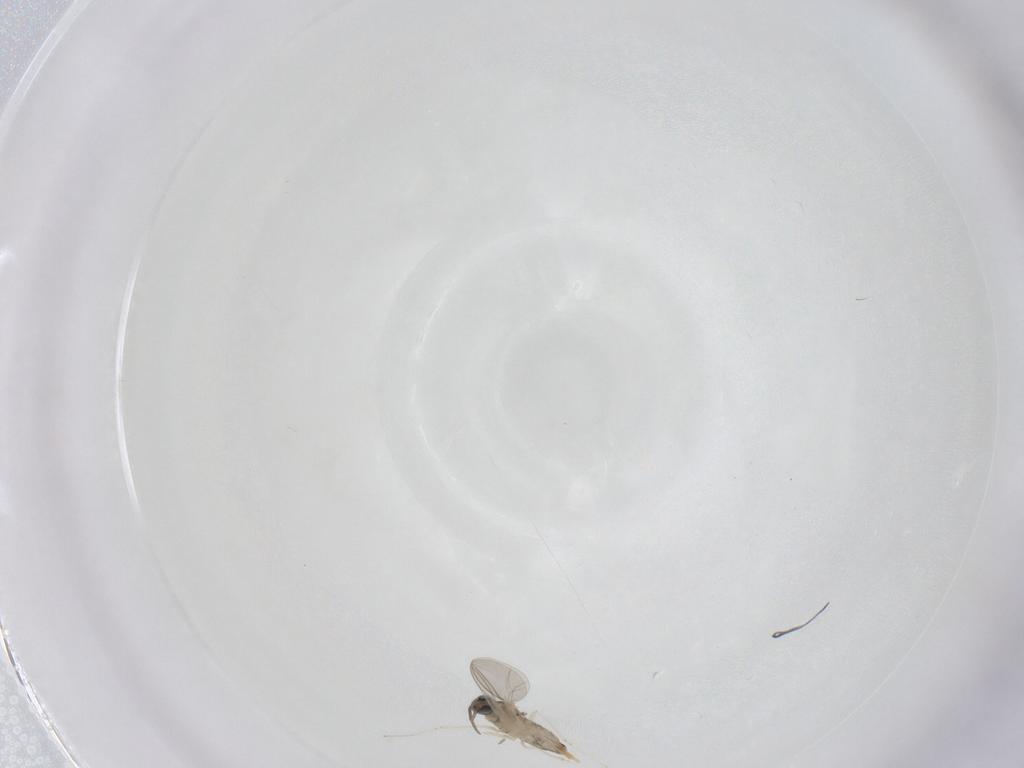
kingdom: Animalia
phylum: Arthropoda
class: Insecta
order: Diptera
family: Cecidomyiidae
